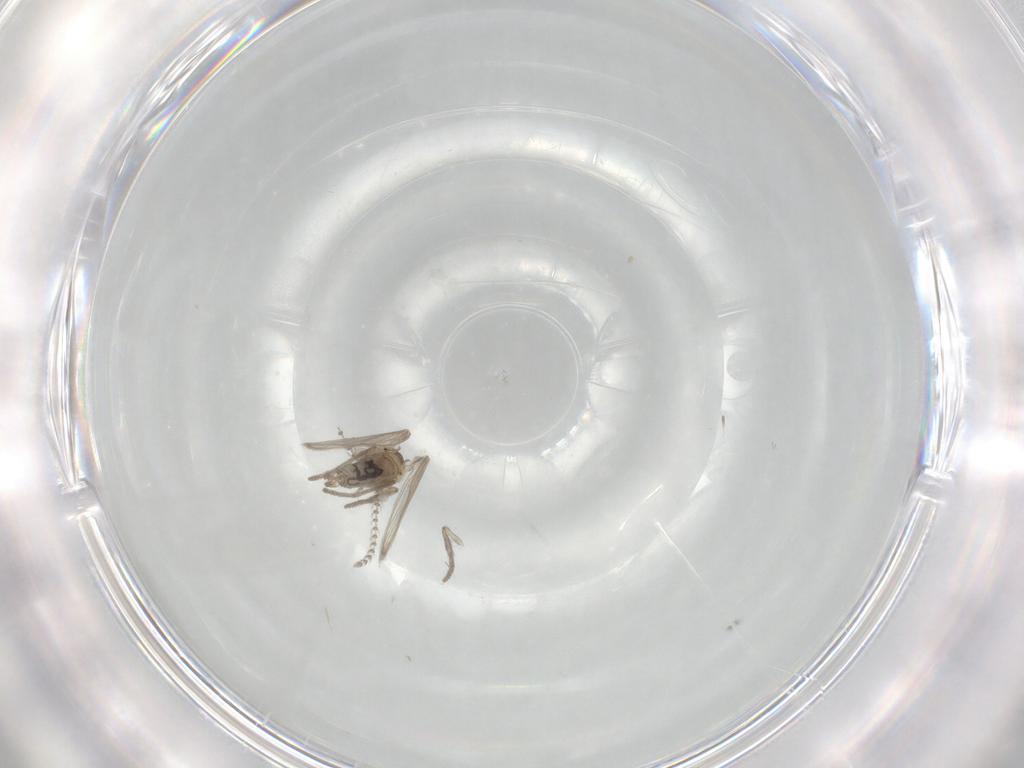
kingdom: Animalia
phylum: Arthropoda
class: Insecta
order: Diptera
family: Psychodidae
